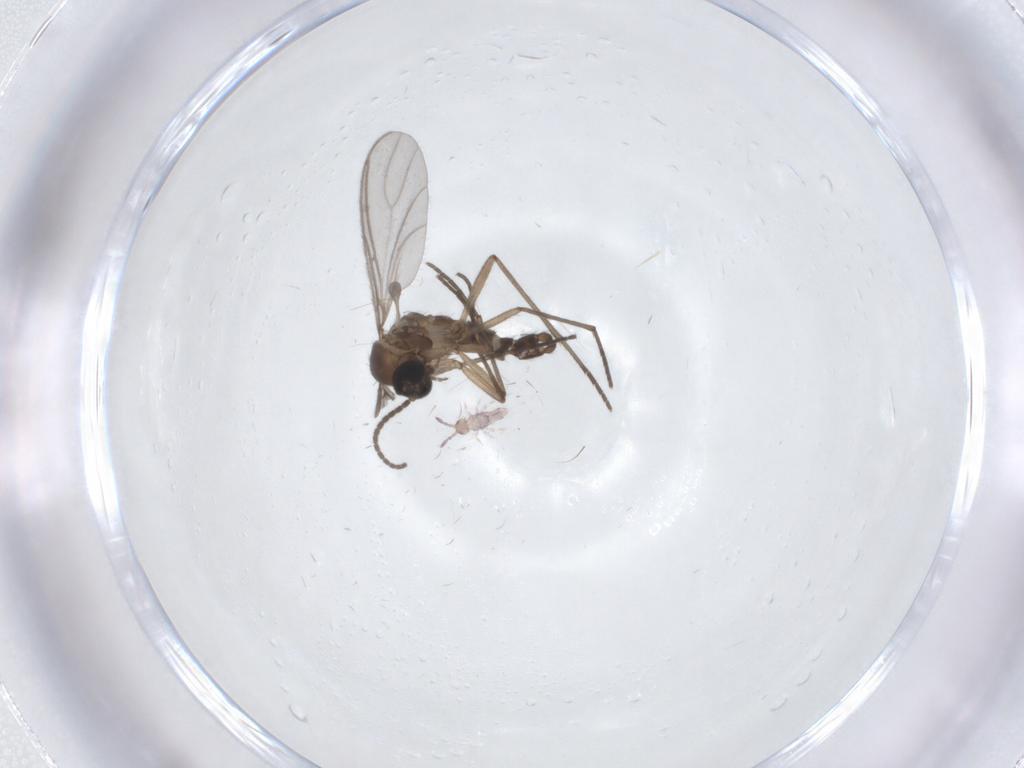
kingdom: Animalia
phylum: Arthropoda
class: Collembola
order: Entomobryomorpha
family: Entomobryidae
